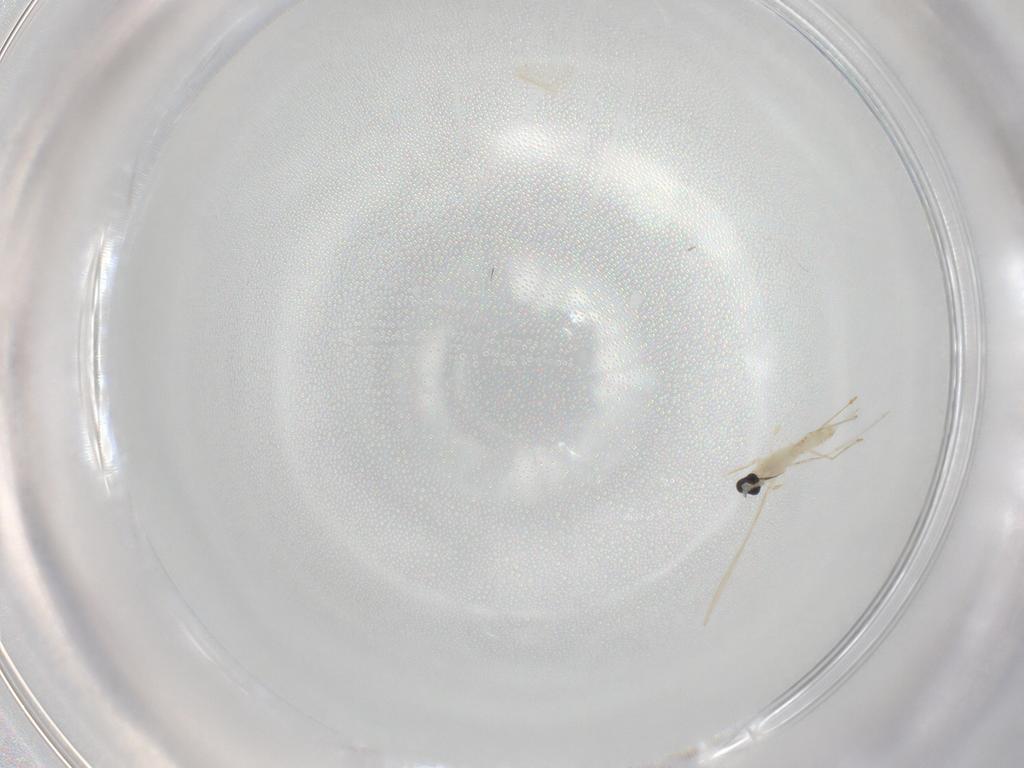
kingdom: Animalia
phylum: Arthropoda
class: Insecta
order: Diptera
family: Cecidomyiidae
